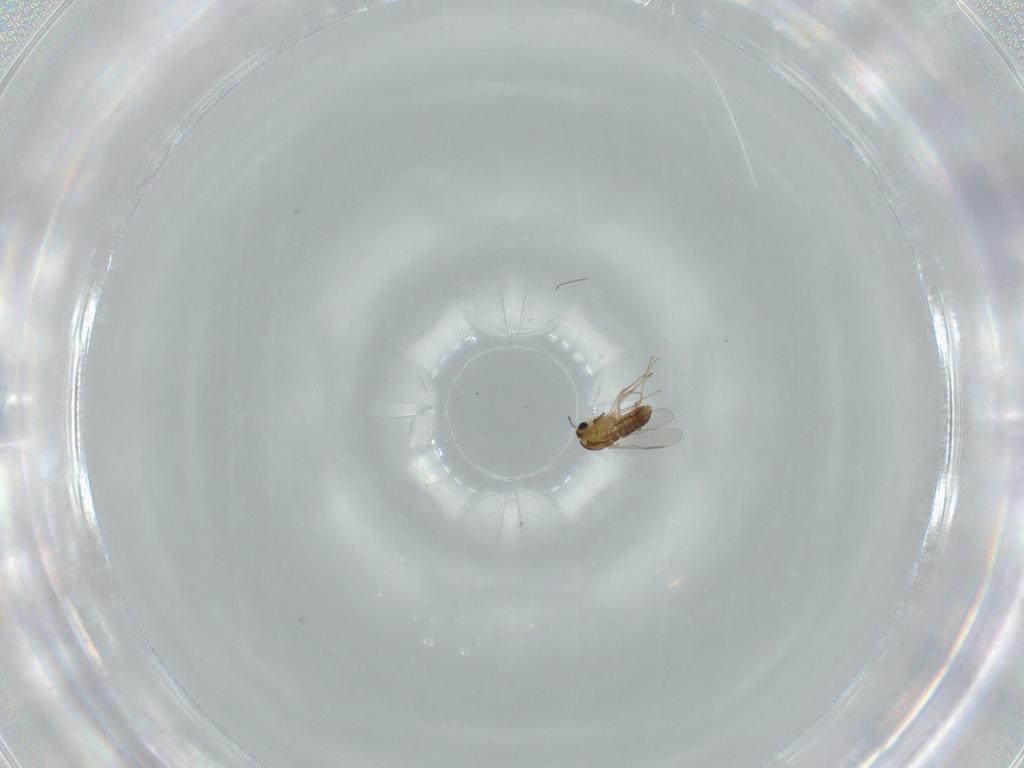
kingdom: Animalia
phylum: Arthropoda
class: Insecta
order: Diptera
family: Chironomidae
